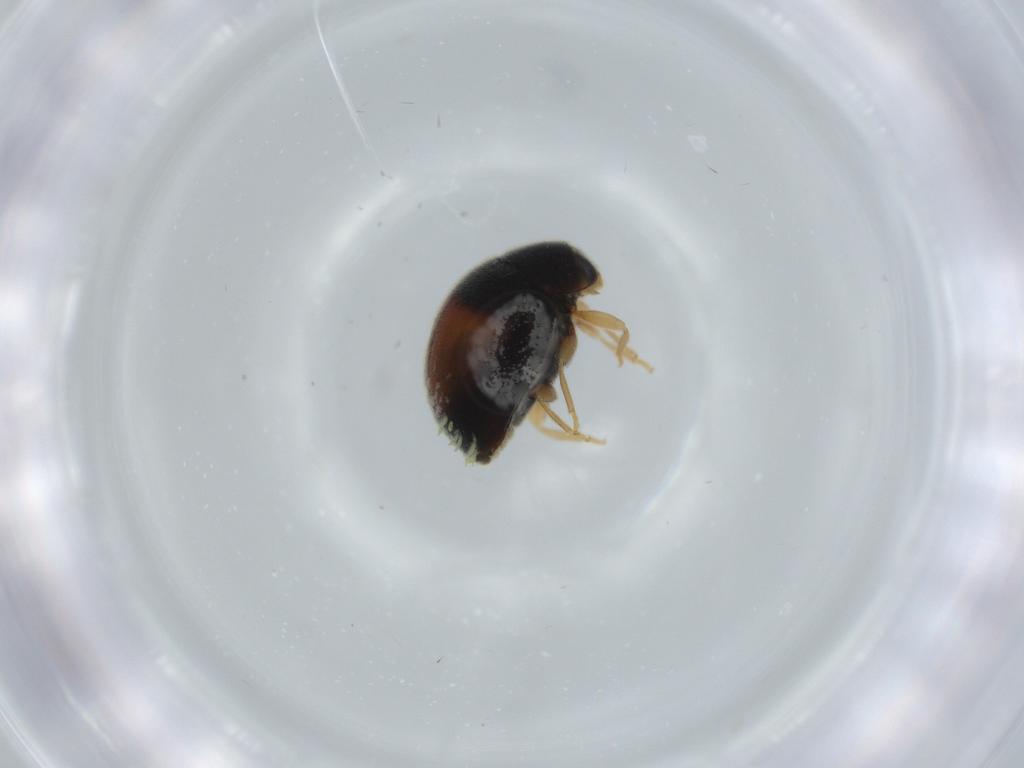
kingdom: Animalia
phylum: Arthropoda
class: Insecta
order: Coleoptera
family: Coccinellidae
